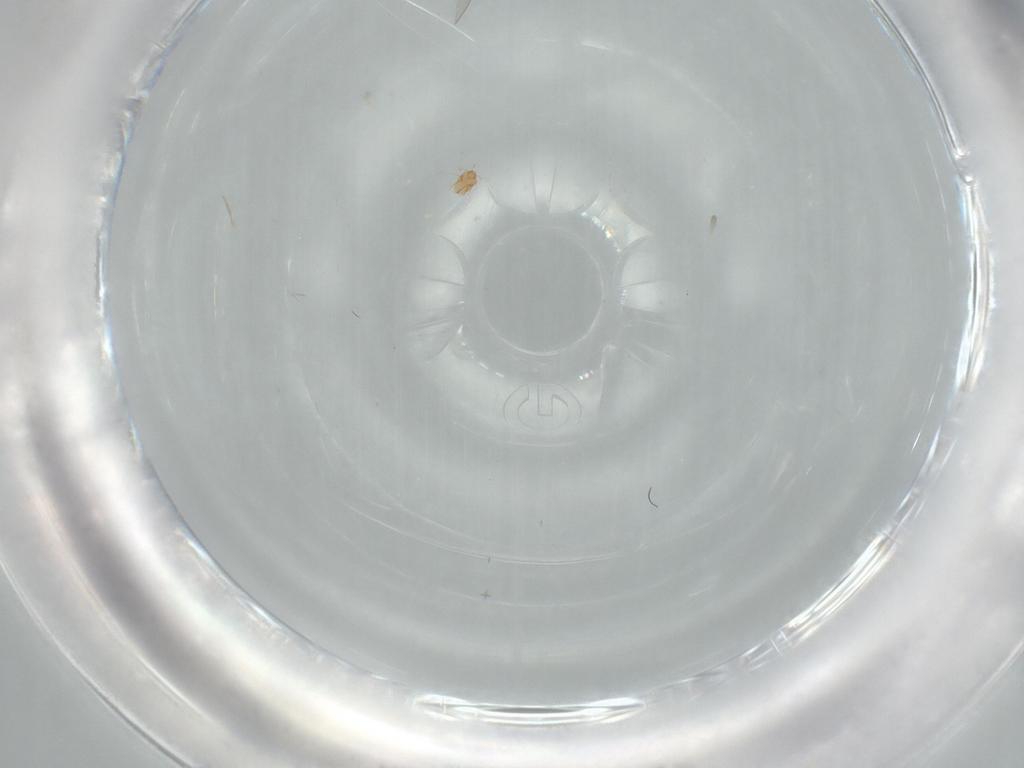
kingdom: Animalia
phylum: Arthropoda
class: Arachnida
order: Trombidiformes
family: Pygmephoridae
